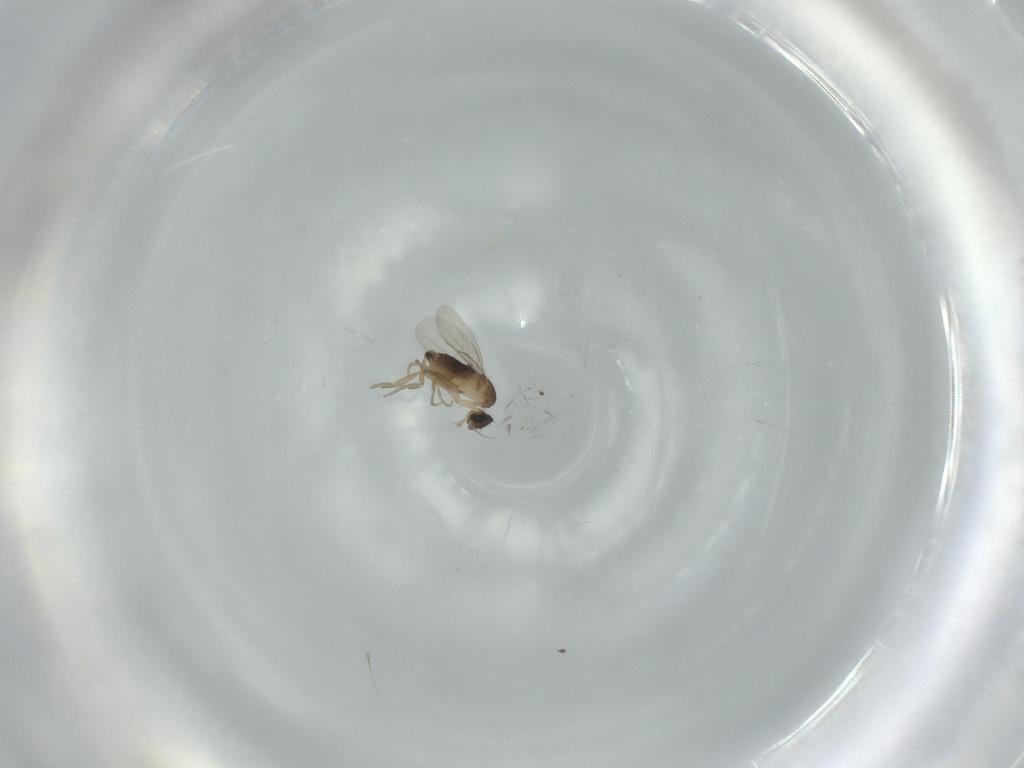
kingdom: Animalia
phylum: Arthropoda
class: Insecta
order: Diptera
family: Phoridae
